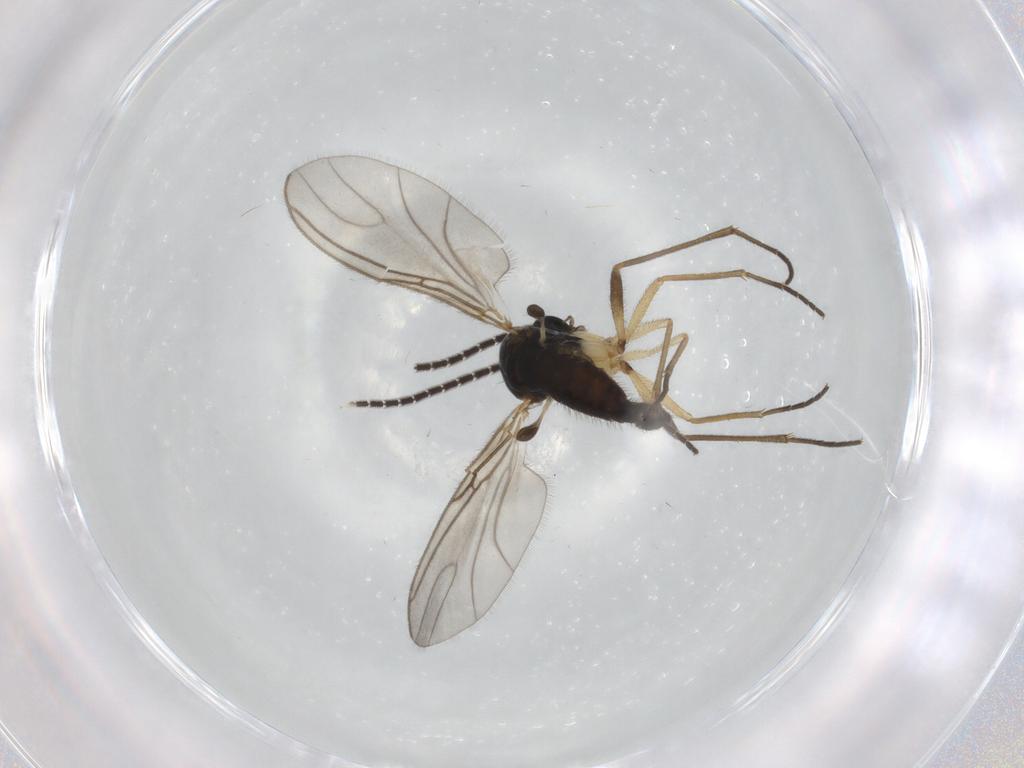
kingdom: Animalia
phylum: Arthropoda
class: Insecta
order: Diptera
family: Sciaridae
